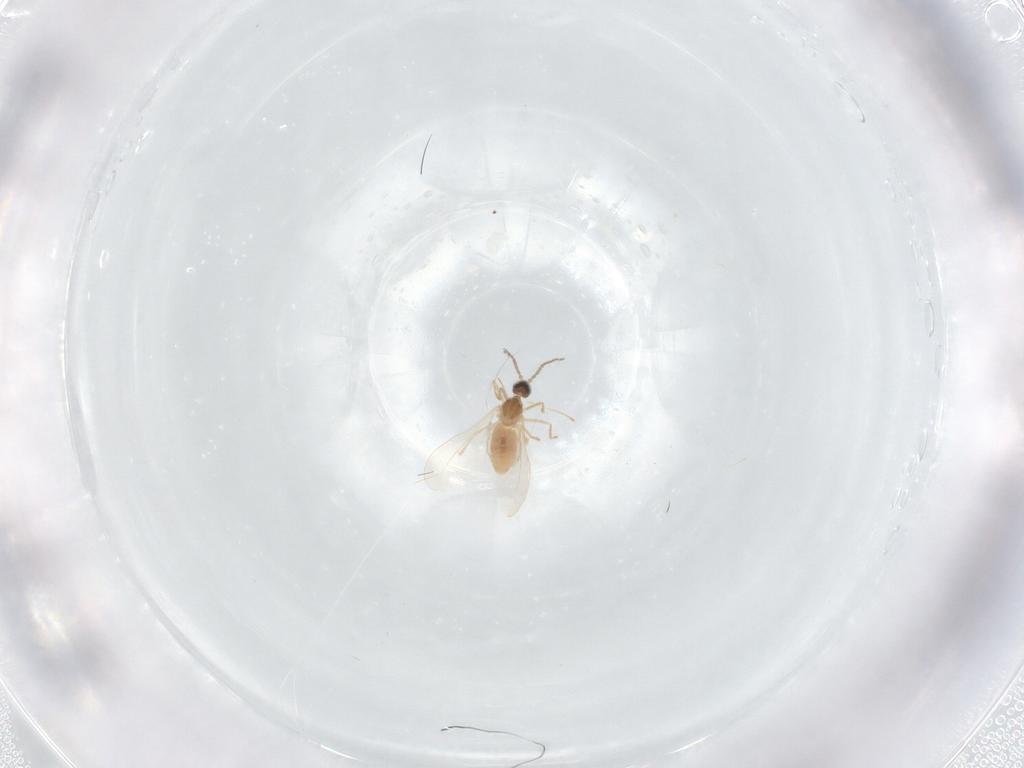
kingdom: Animalia
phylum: Arthropoda
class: Insecta
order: Diptera
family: Cecidomyiidae
